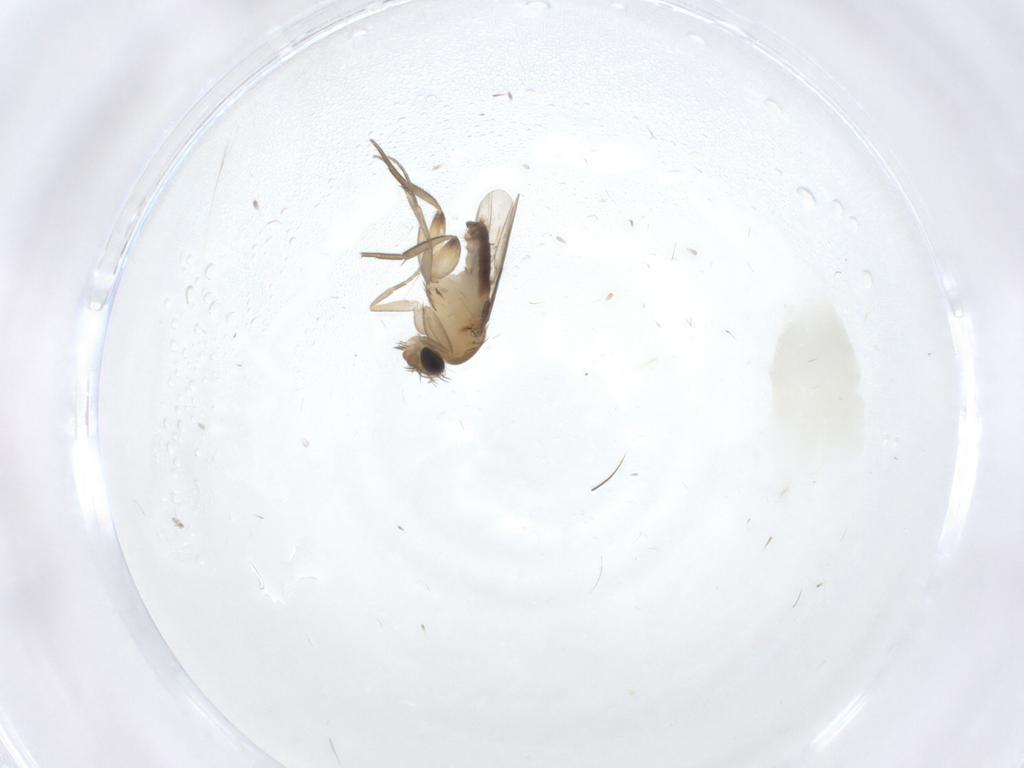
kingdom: Animalia
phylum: Arthropoda
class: Insecta
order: Diptera
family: Phoridae
